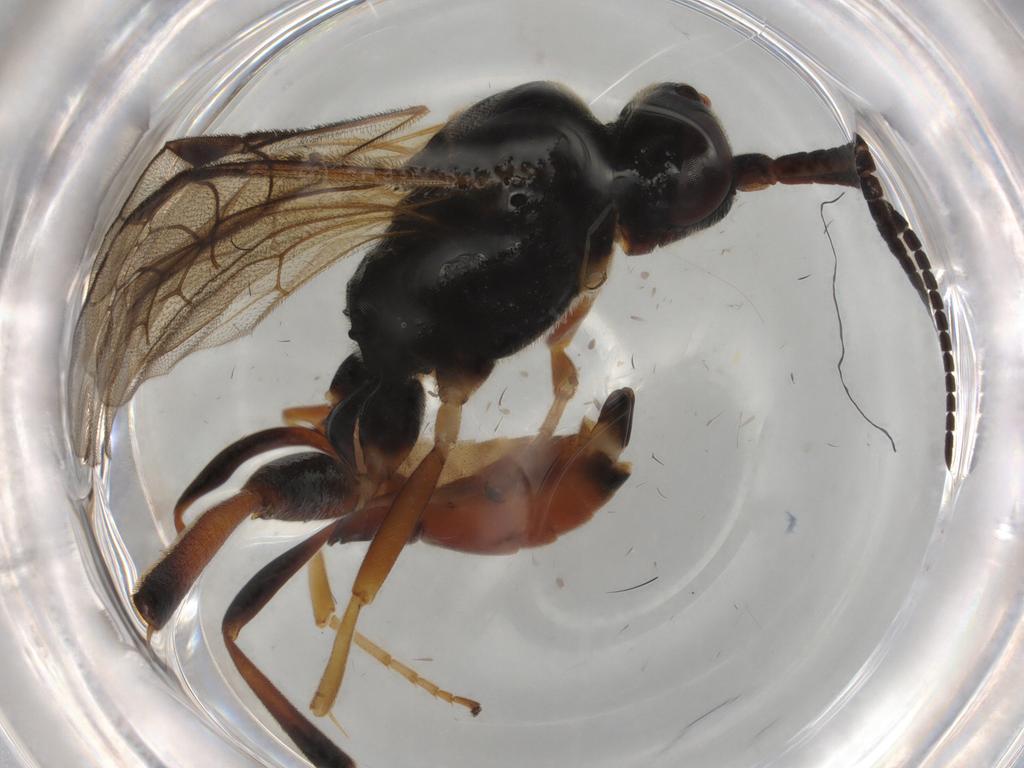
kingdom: Animalia
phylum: Arthropoda
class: Insecta
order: Hymenoptera
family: Ichneumonidae
